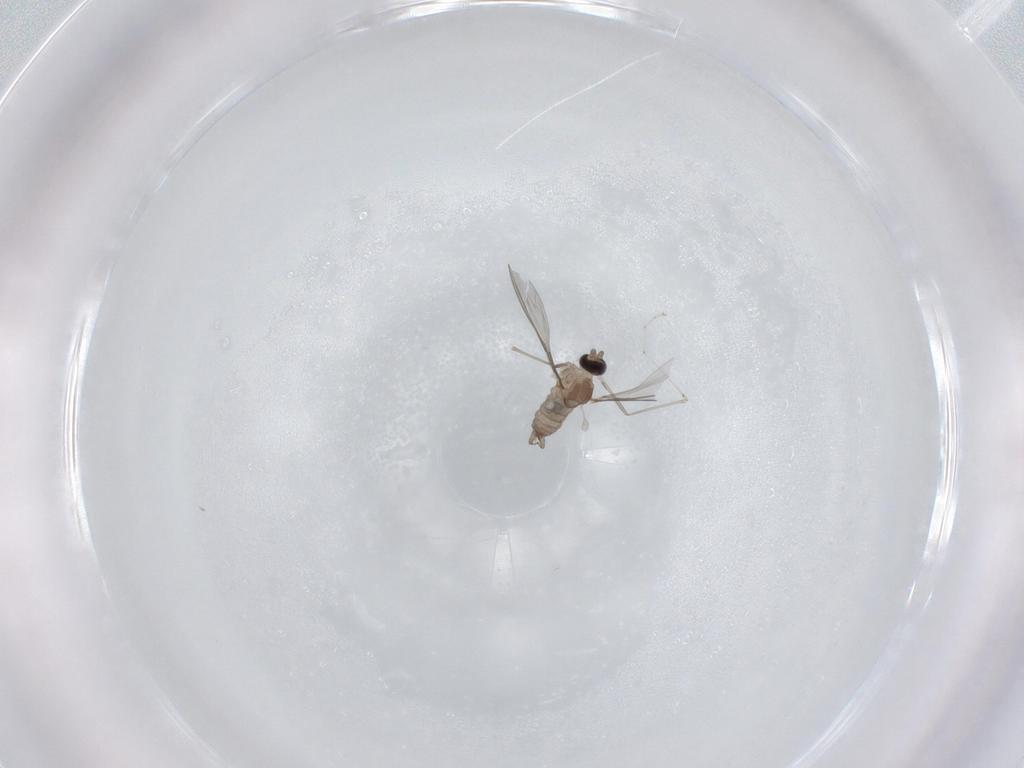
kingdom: Animalia
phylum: Arthropoda
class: Insecta
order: Diptera
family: Cecidomyiidae
